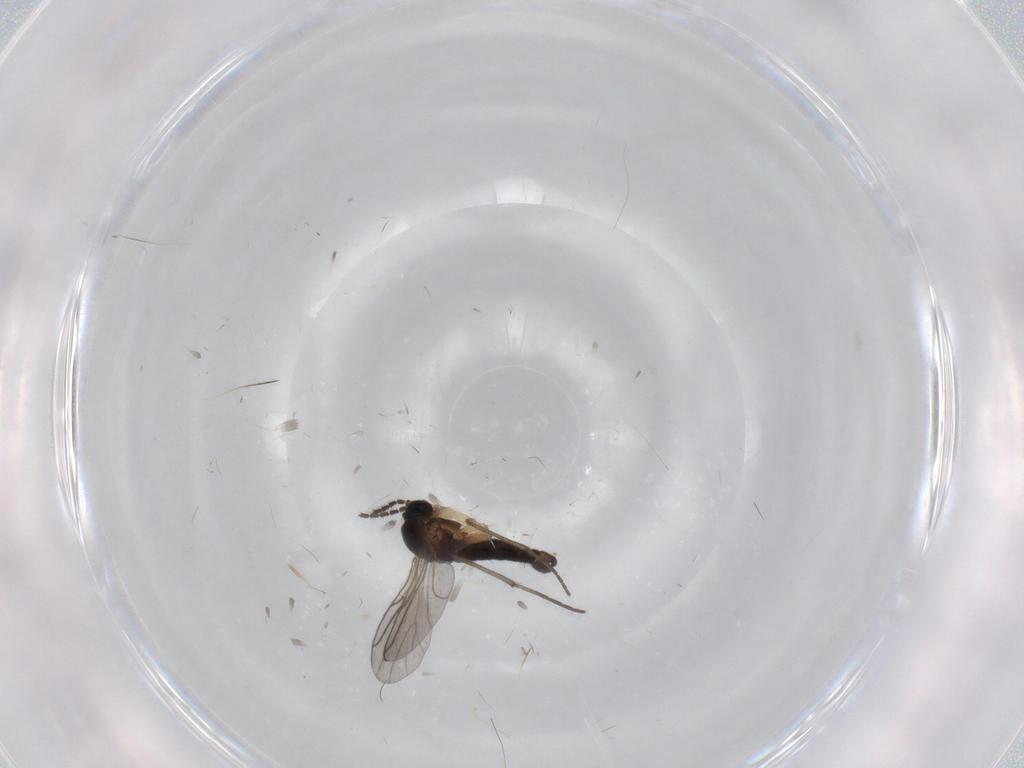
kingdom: Animalia
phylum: Arthropoda
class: Insecta
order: Diptera
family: Sciaridae
